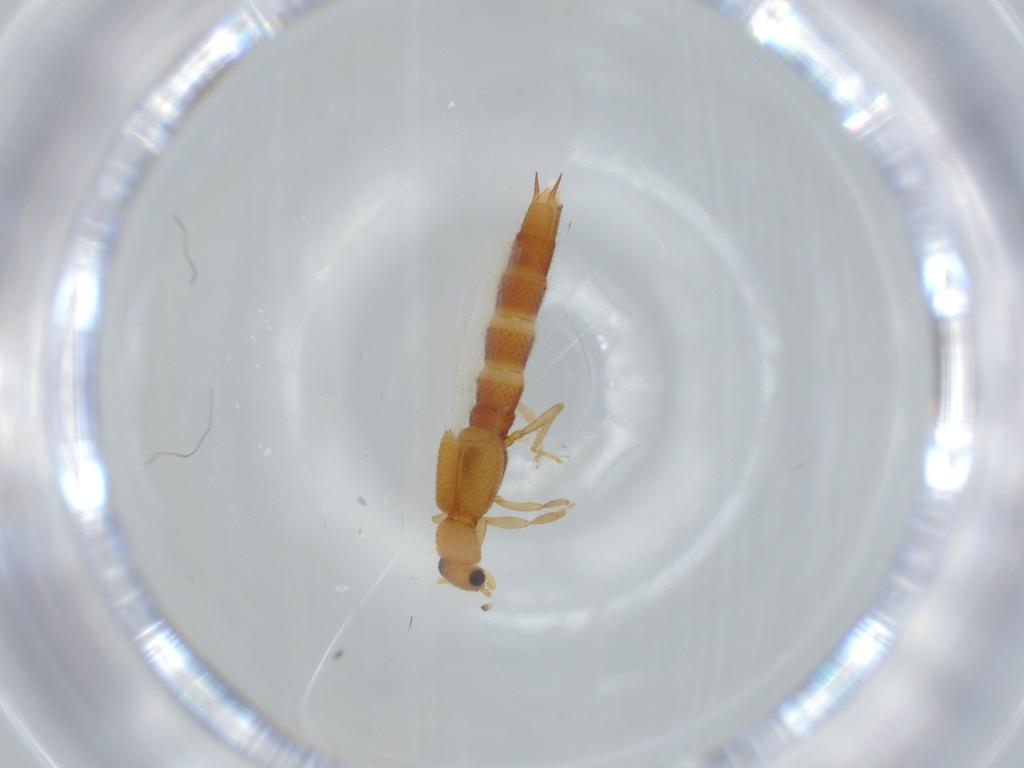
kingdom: Animalia
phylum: Arthropoda
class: Insecta
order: Coleoptera
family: Staphylinidae
